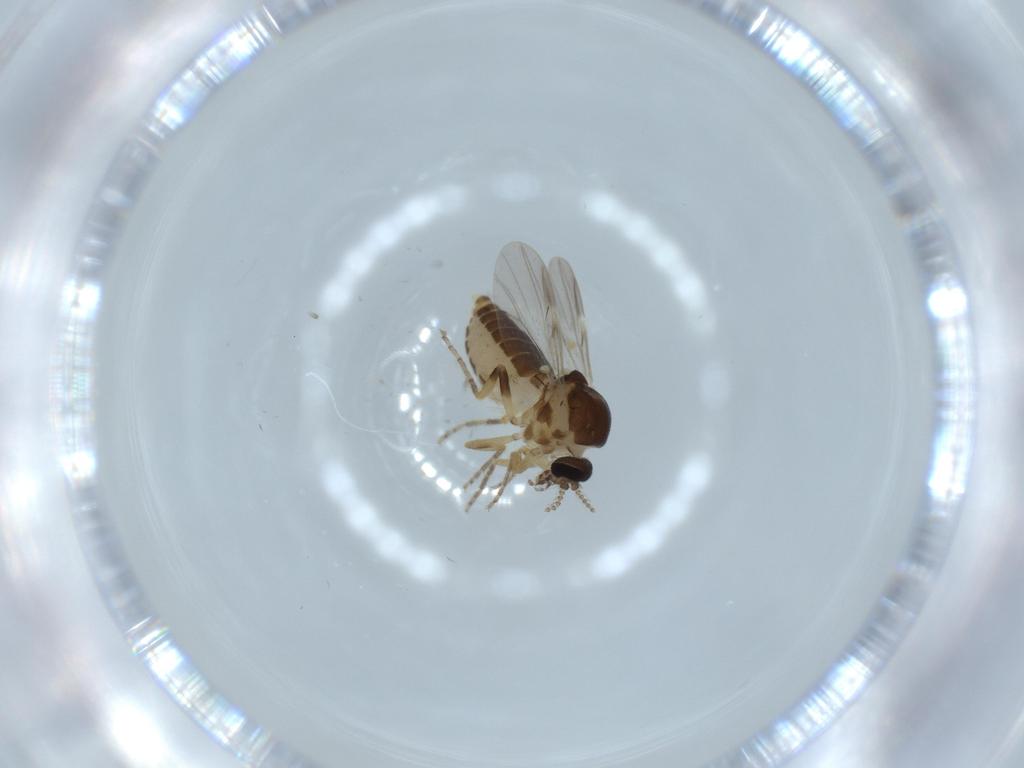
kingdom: Animalia
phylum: Arthropoda
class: Insecta
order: Diptera
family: Ceratopogonidae
